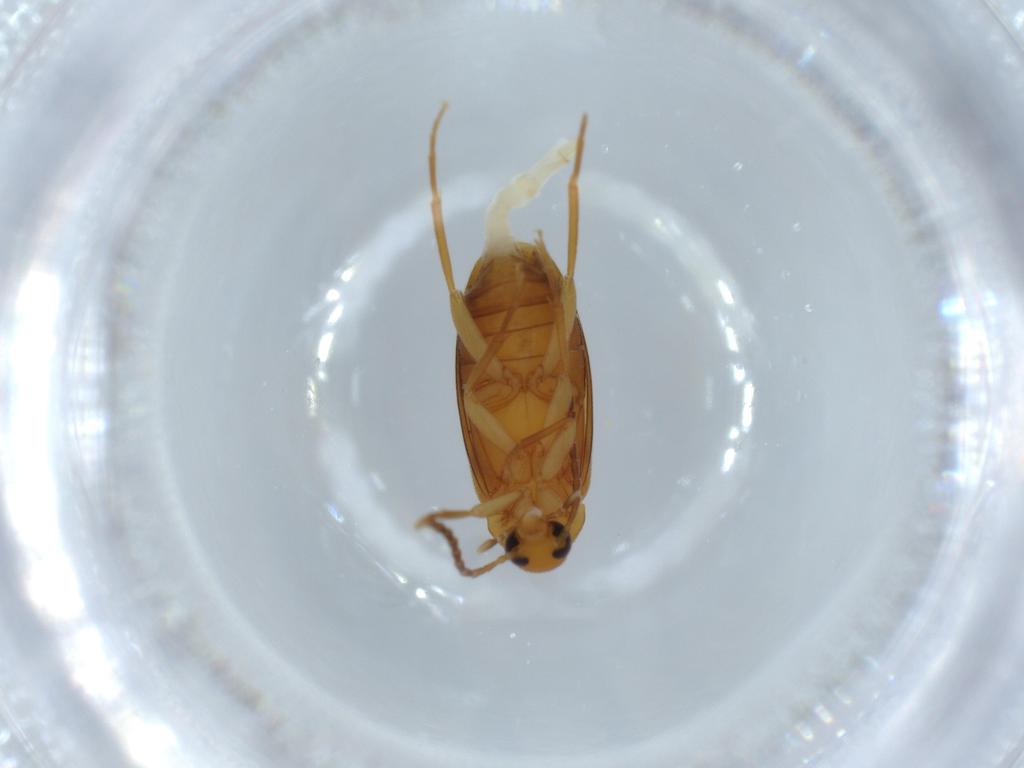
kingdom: Animalia
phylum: Arthropoda
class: Insecta
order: Coleoptera
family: Scraptiidae
